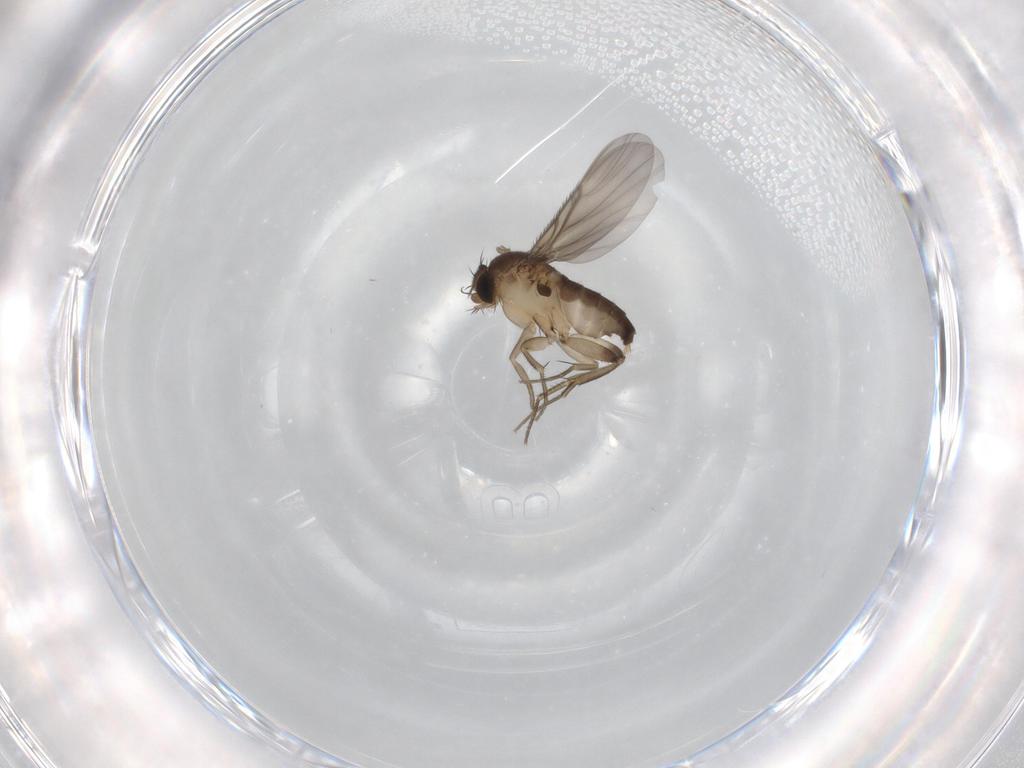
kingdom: Animalia
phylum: Arthropoda
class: Insecta
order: Diptera
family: Phoridae
